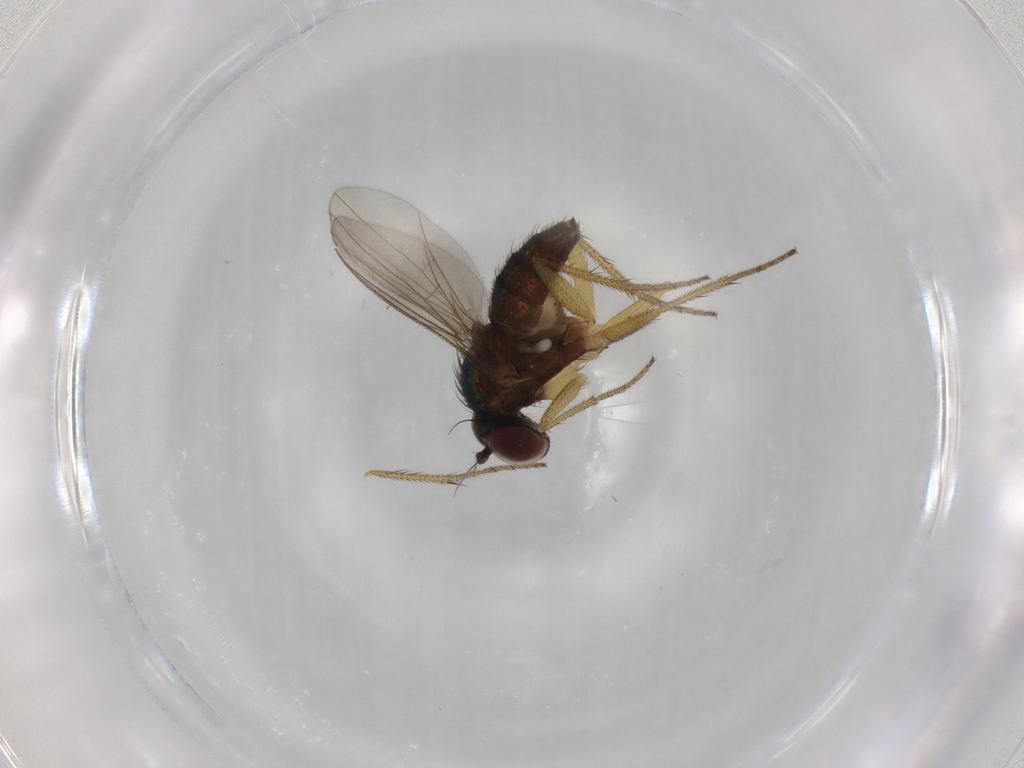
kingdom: Animalia
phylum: Arthropoda
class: Insecta
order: Diptera
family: Dolichopodidae
